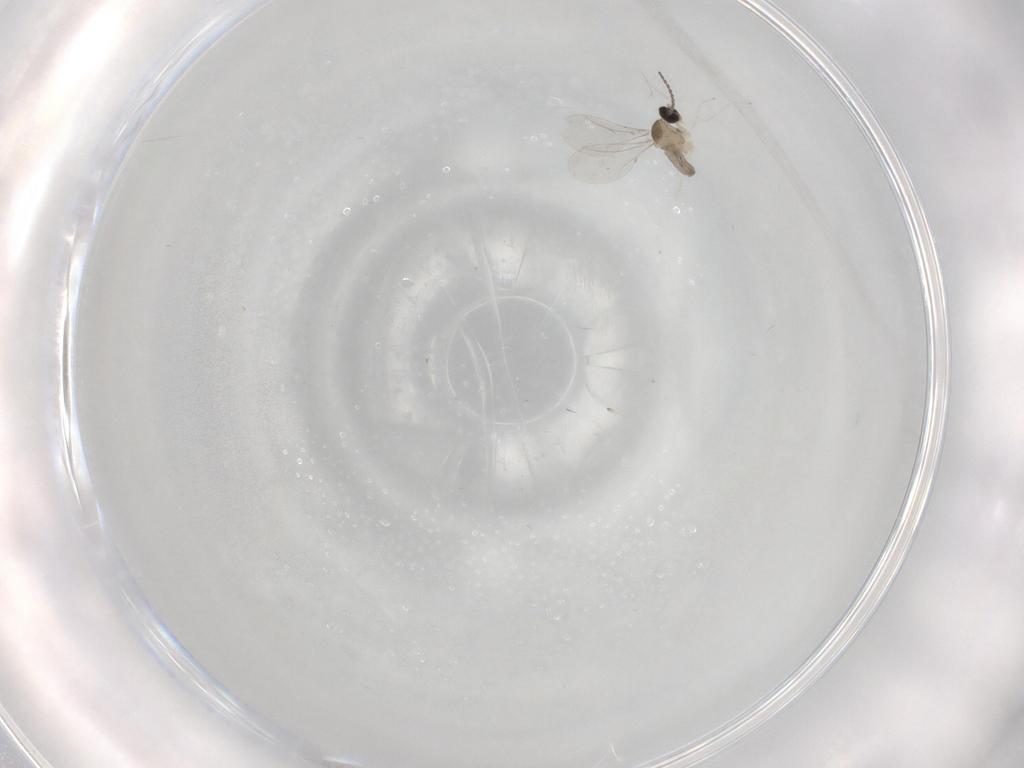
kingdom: Animalia
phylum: Arthropoda
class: Insecta
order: Diptera
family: Cecidomyiidae
